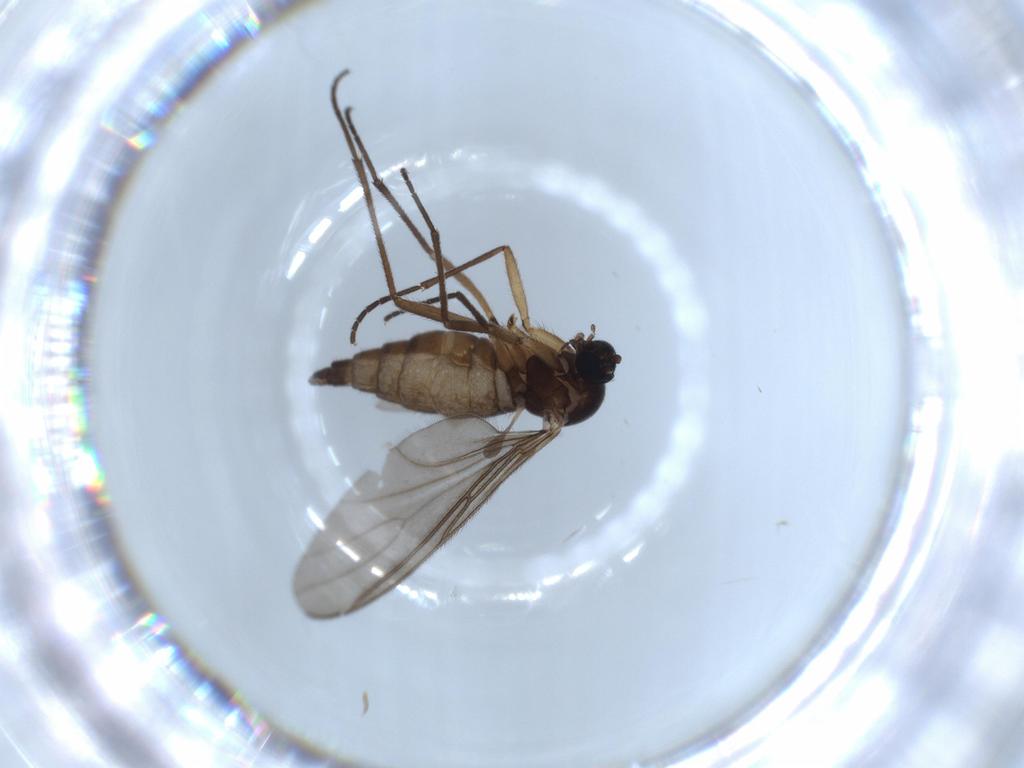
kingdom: Animalia
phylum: Arthropoda
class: Insecta
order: Diptera
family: Sciaridae
